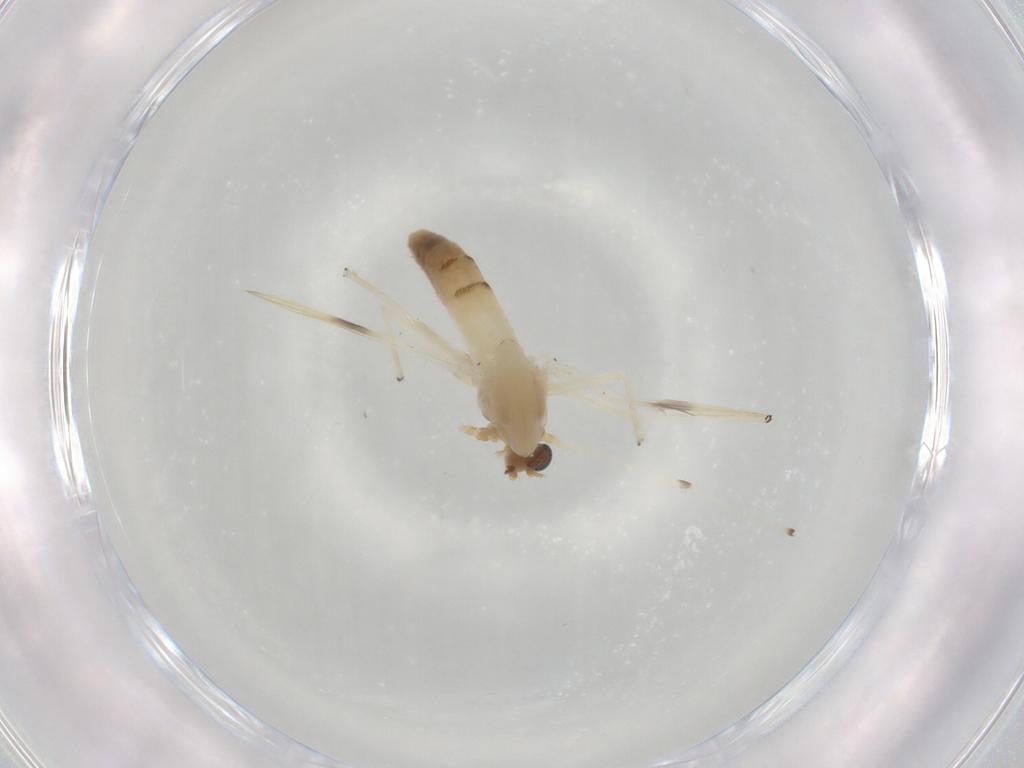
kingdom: Animalia
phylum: Arthropoda
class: Insecta
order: Diptera
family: Chironomidae
